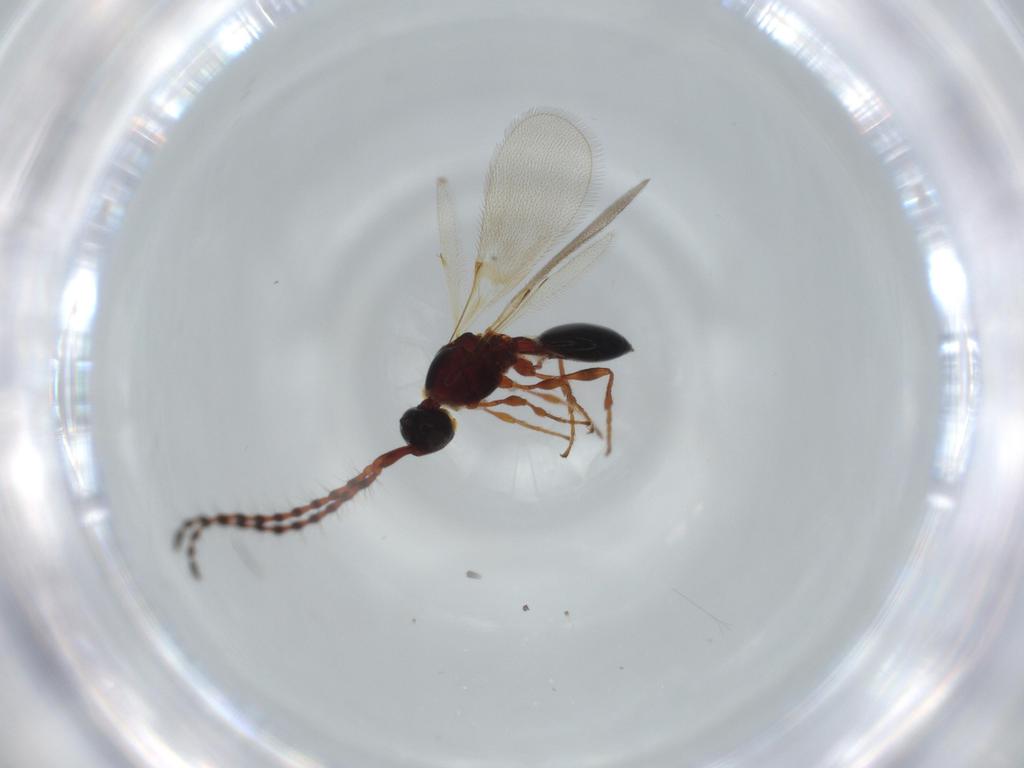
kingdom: Animalia
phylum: Arthropoda
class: Insecta
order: Hymenoptera
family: Diapriidae
